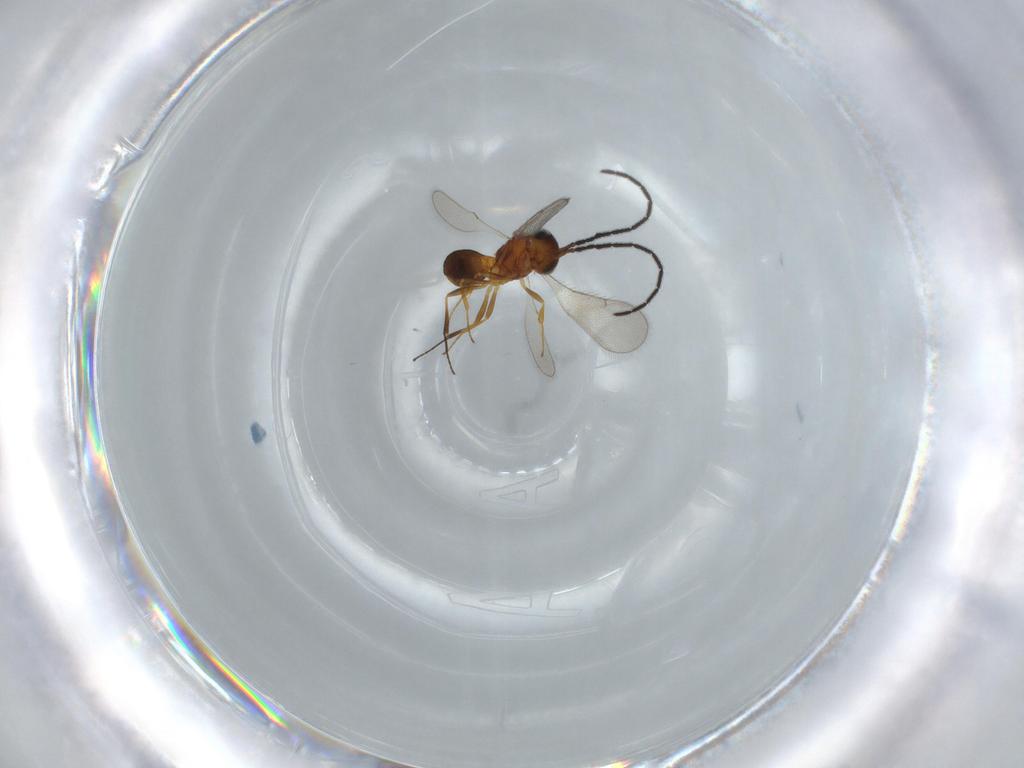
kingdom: Animalia
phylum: Arthropoda
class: Insecta
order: Hymenoptera
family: Scelionidae
